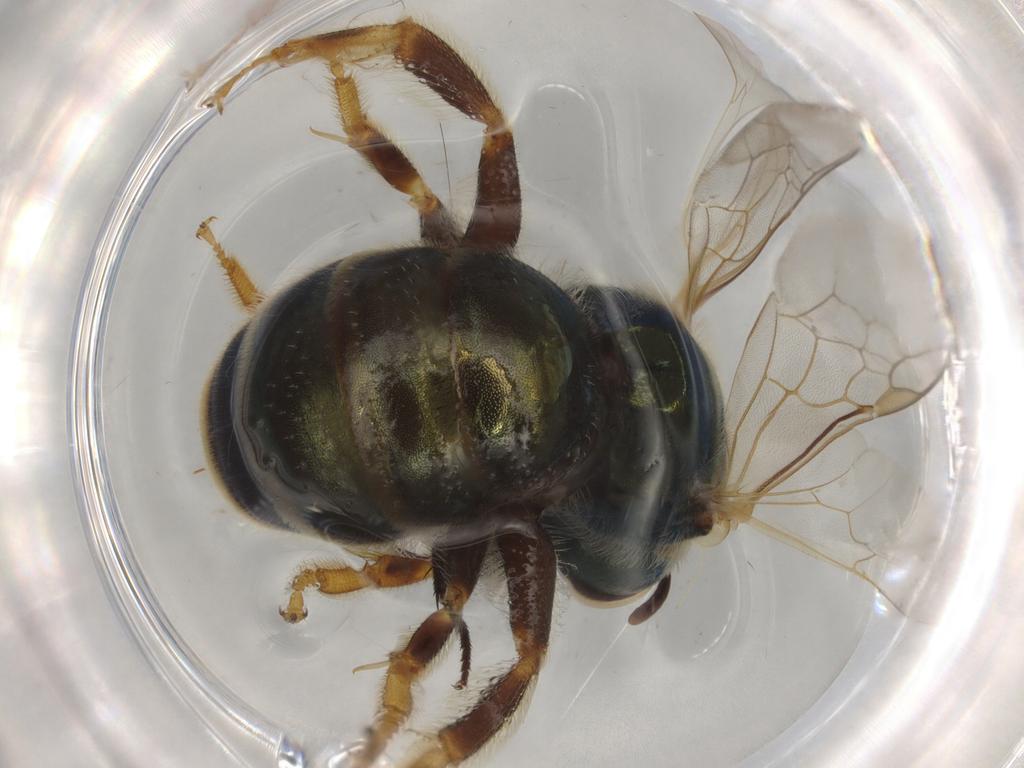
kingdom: Animalia
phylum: Arthropoda
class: Insecta
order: Hymenoptera
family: Halictidae
